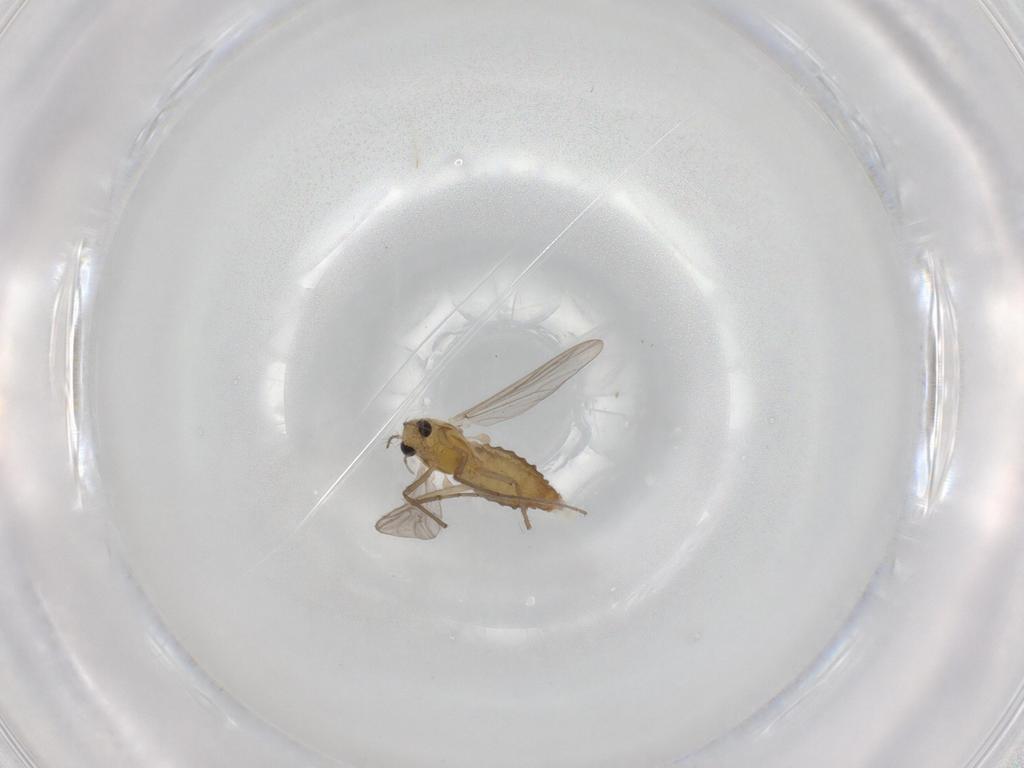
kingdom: Animalia
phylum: Arthropoda
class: Insecta
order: Diptera
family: Chironomidae
